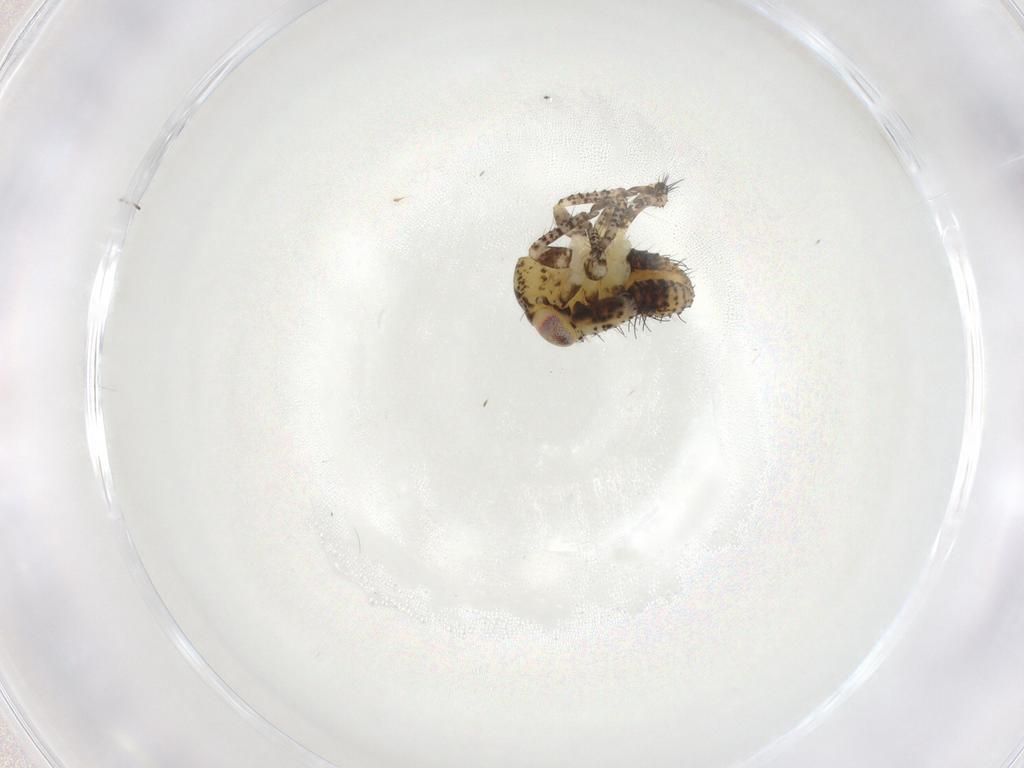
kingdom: Animalia
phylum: Arthropoda
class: Insecta
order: Hemiptera
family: Cicadellidae
